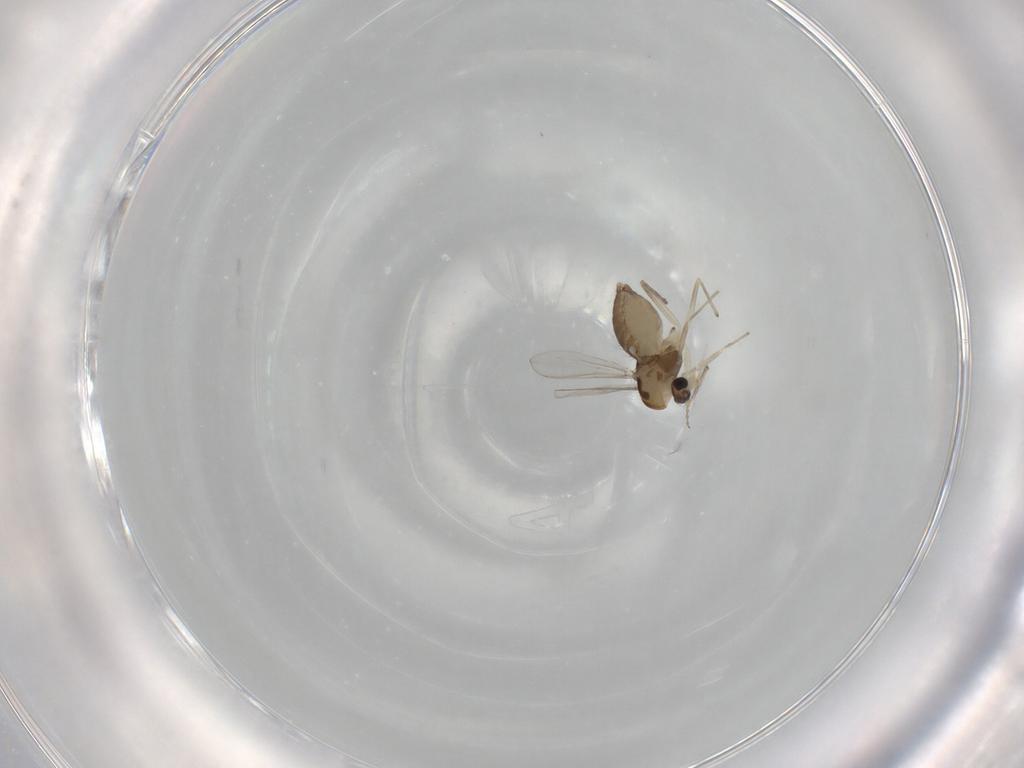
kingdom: Animalia
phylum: Arthropoda
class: Insecta
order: Diptera
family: Chironomidae
